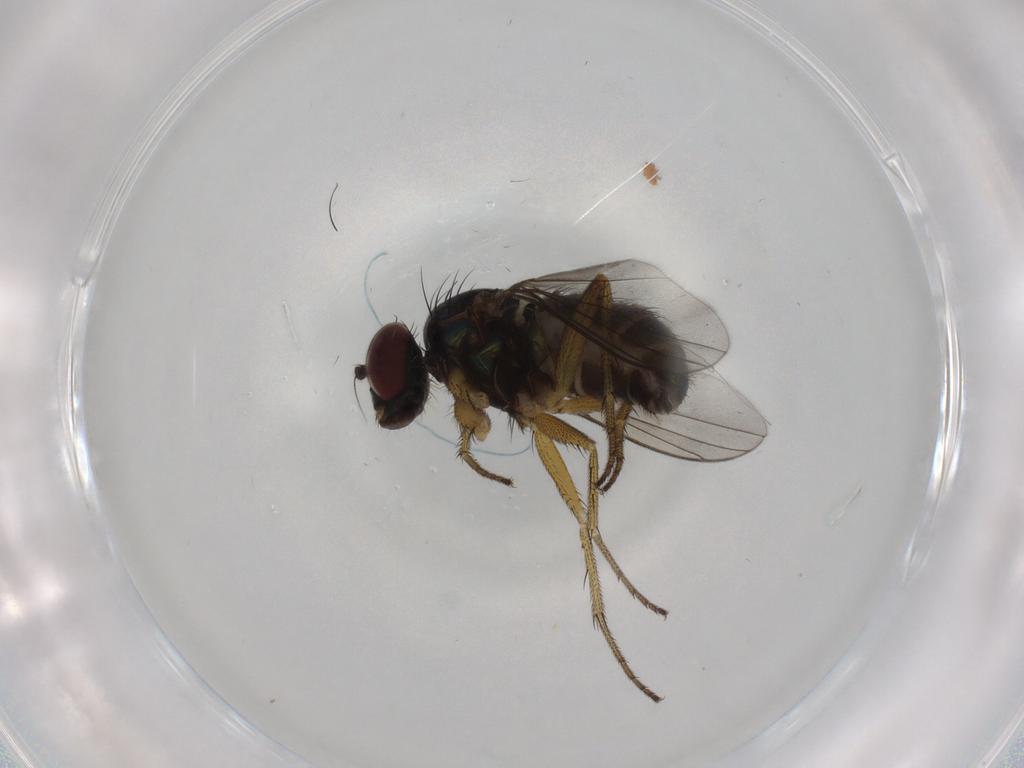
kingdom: Animalia
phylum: Arthropoda
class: Insecta
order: Diptera
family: Dolichopodidae
